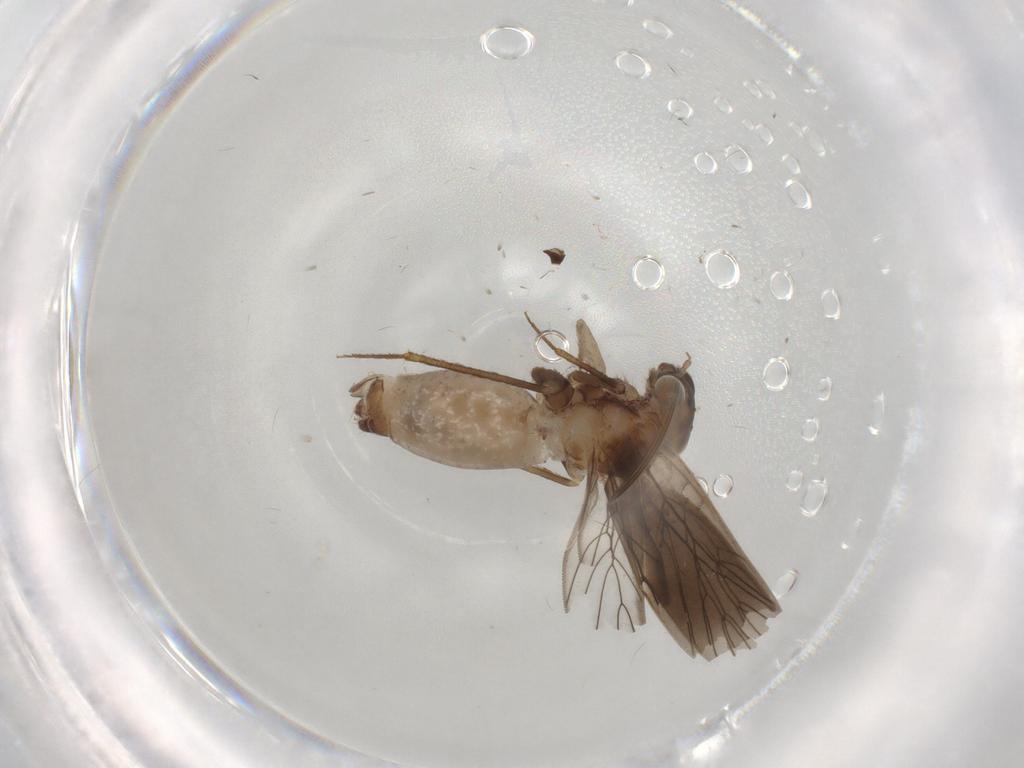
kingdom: Animalia
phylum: Arthropoda
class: Insecta
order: Psocodea
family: Lepidopsocidae
